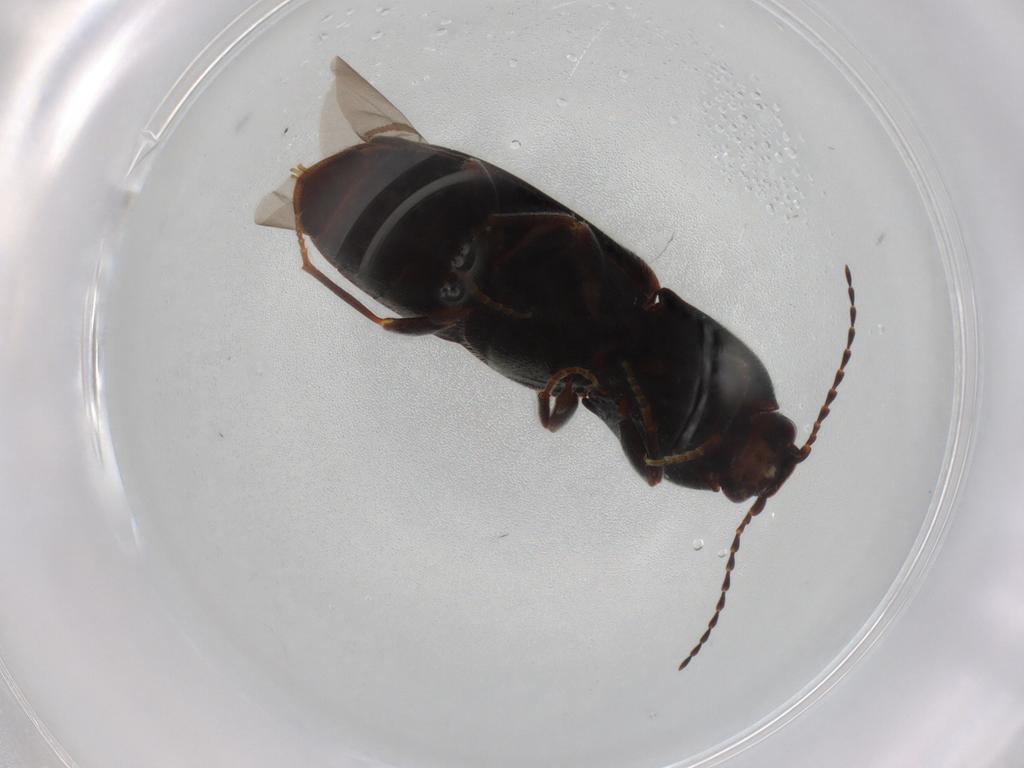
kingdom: Animalia
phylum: Arthropoda
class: Insecta
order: Coleoptera
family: Elateridae
